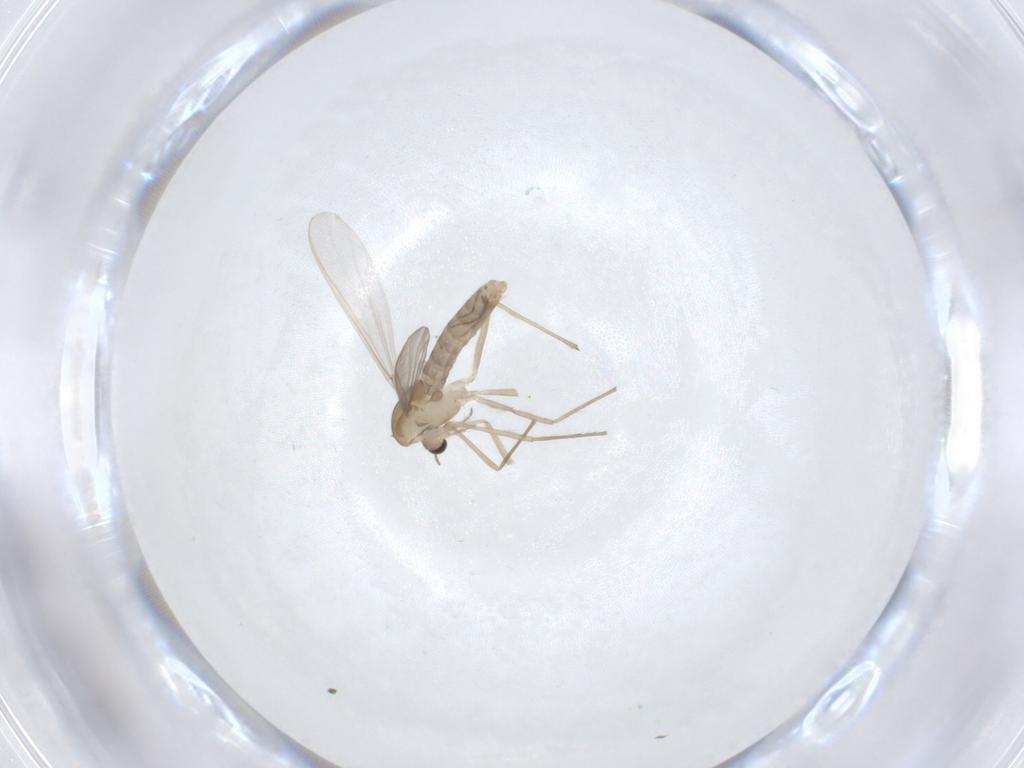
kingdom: Animalia
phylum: Arthropoda
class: Insecta
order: Diptera
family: Chironomidae
